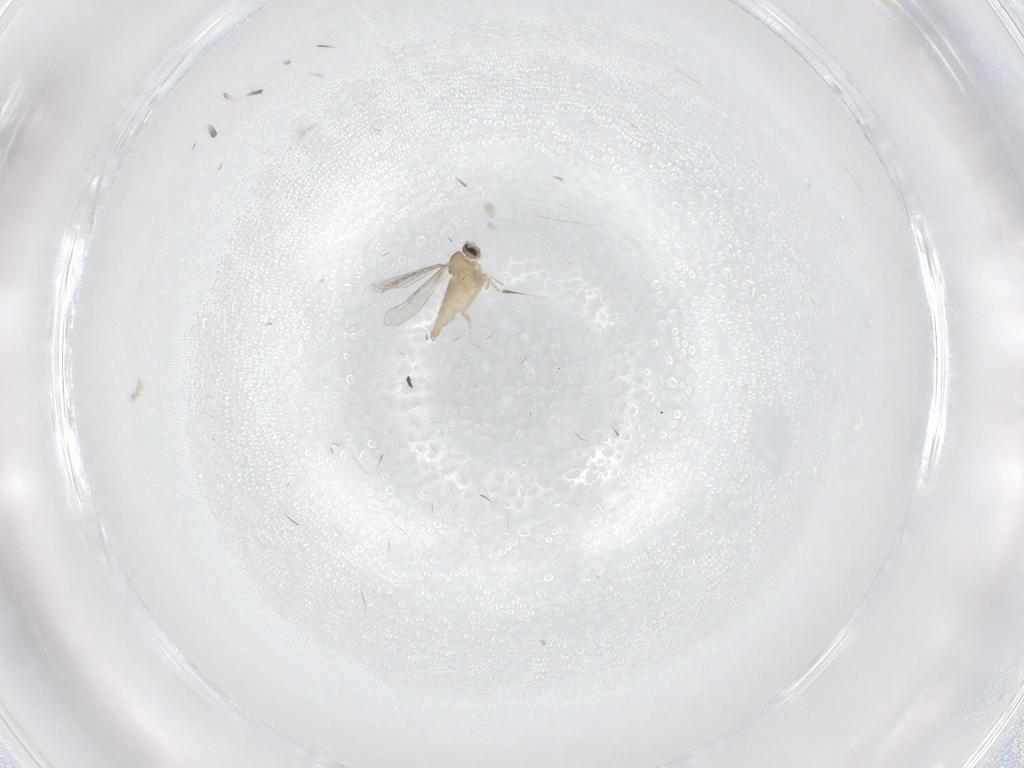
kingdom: Animalia
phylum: Arthropoda
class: Insecta
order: Diptera
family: Cecidomyiidae
